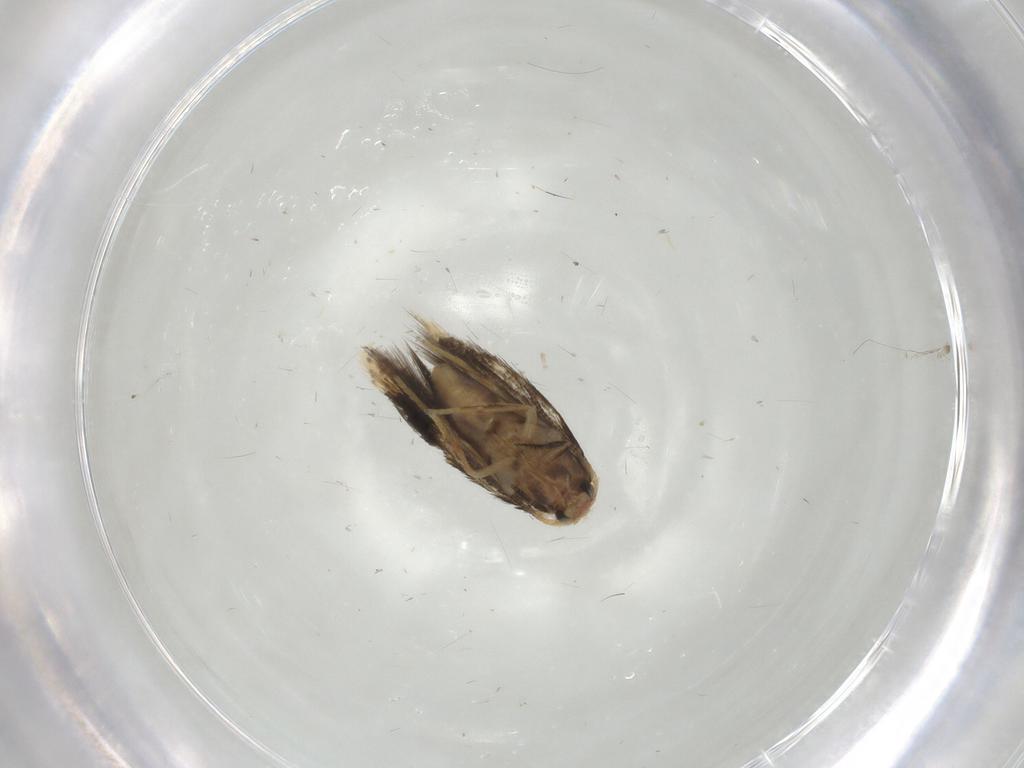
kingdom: Animalia
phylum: Arthropoda
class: Insecta
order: Lepidoptera
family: Nepticulidae
